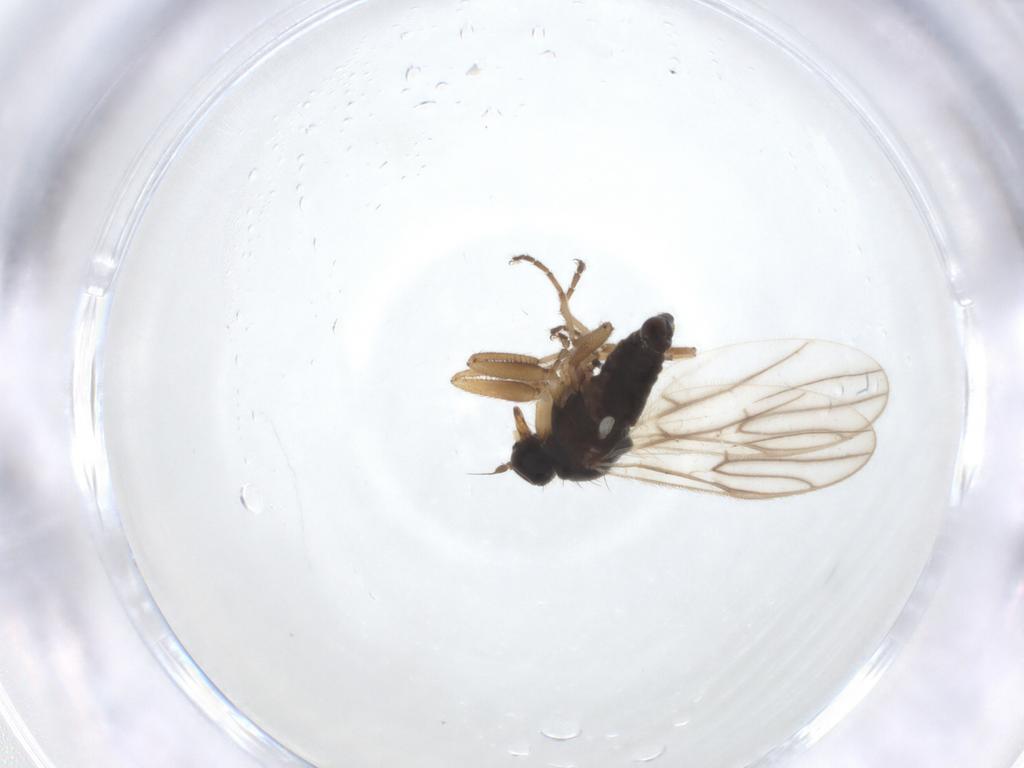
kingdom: Animalia
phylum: Arthropoda
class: Insecta
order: Diptera
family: Hybotidae
